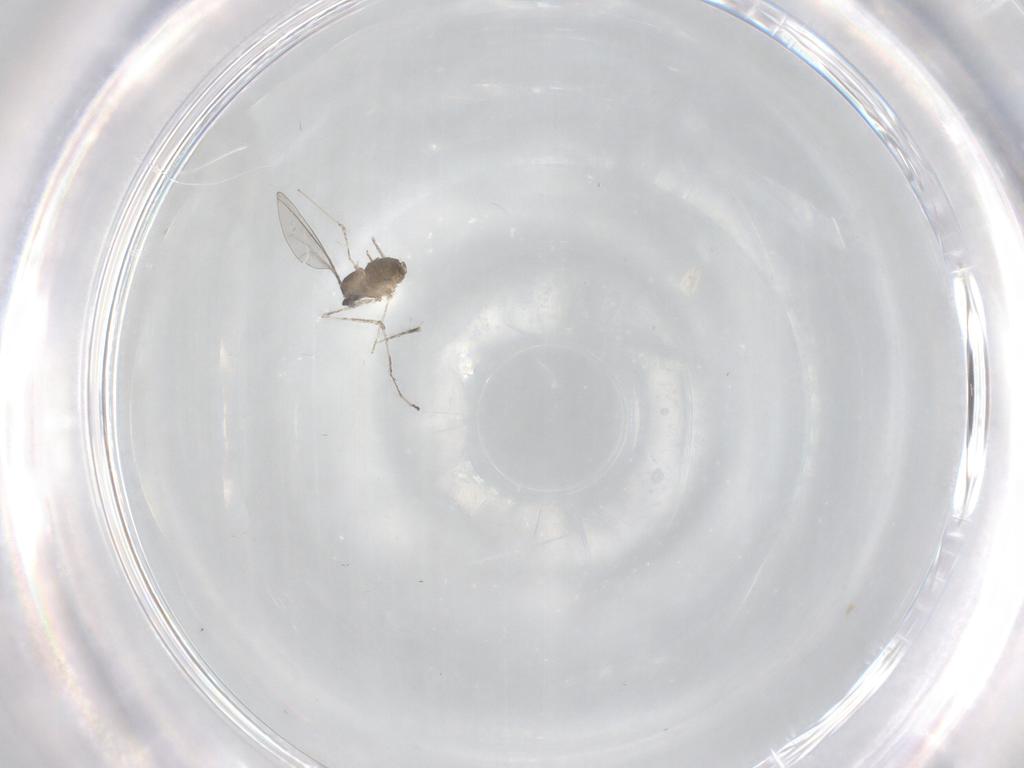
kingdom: Animalia
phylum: Arthropoda
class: Insecta
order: Diptera
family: Cecidomyiidae
